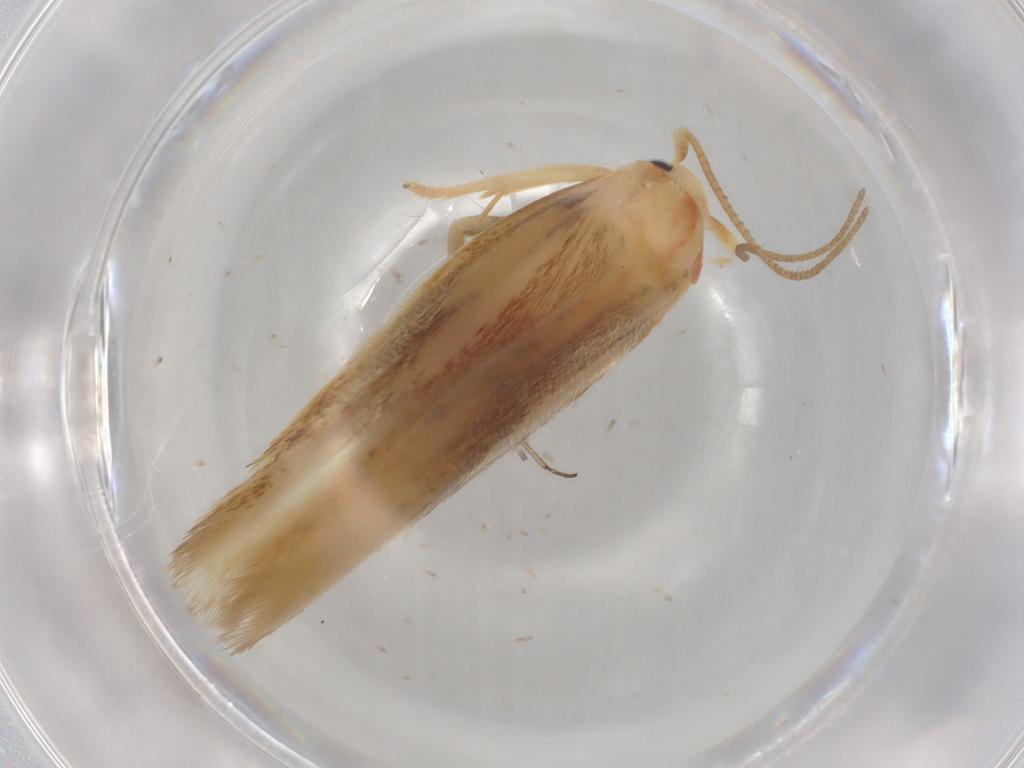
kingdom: Animalia
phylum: Arthropoda
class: Insecta
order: Lepidoptera
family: Geometridae
